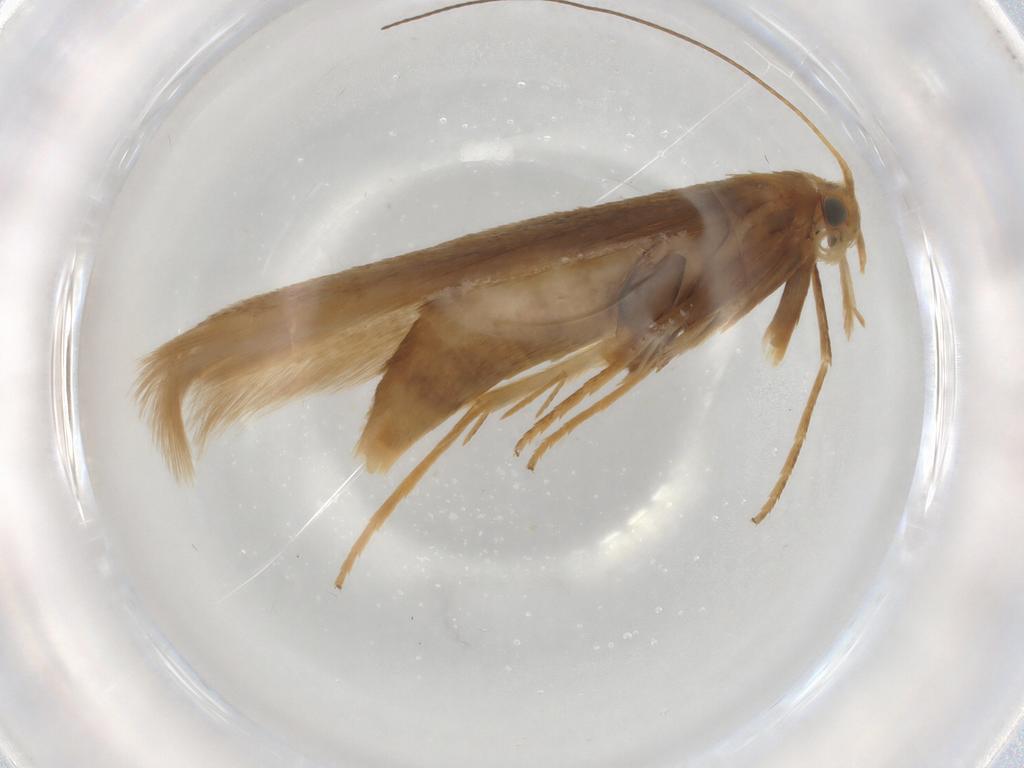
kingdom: Animalia
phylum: Arthropoda
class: Insecta
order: Lepidoptera
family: Coleophoridae
